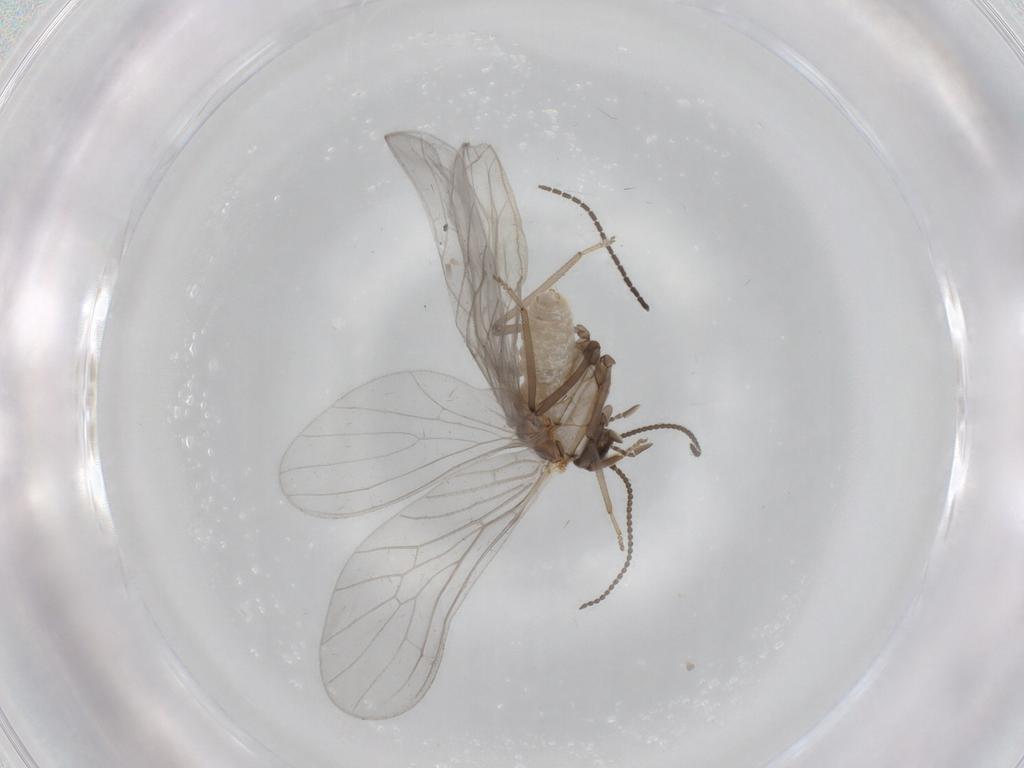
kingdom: Animalia
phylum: Arthropoda
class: Insecta
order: Neuroptera
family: Coniopterygidae
